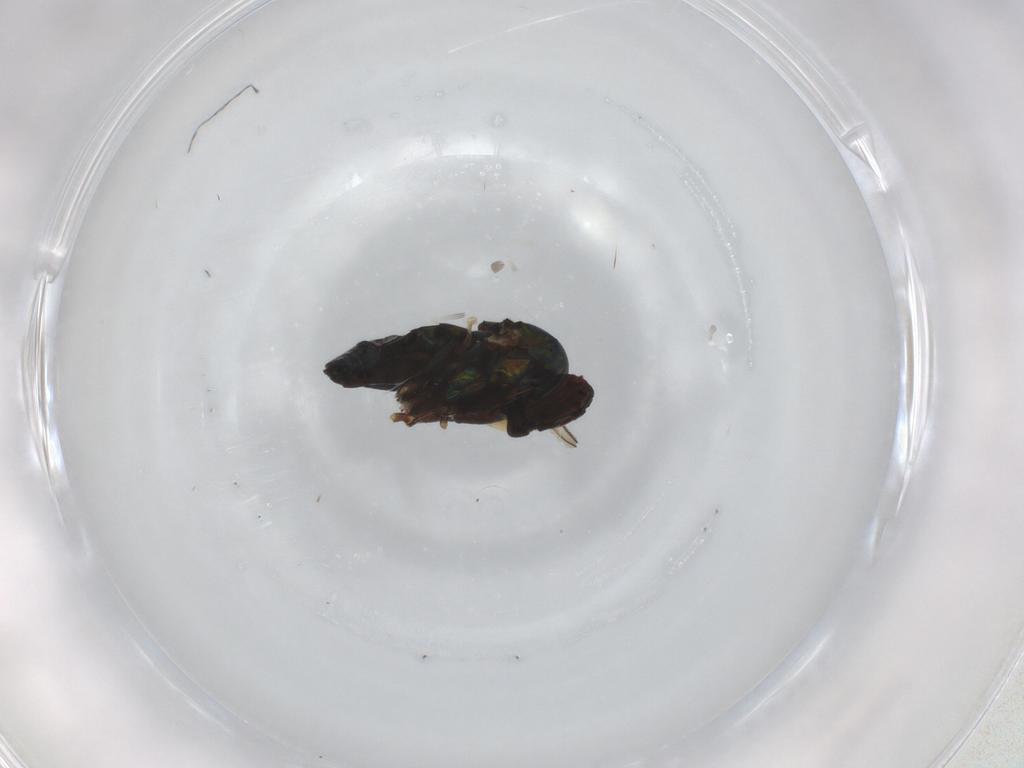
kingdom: Animalia
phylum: Arthropoda
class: Insecta
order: Diptera
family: Dolichopodidae
